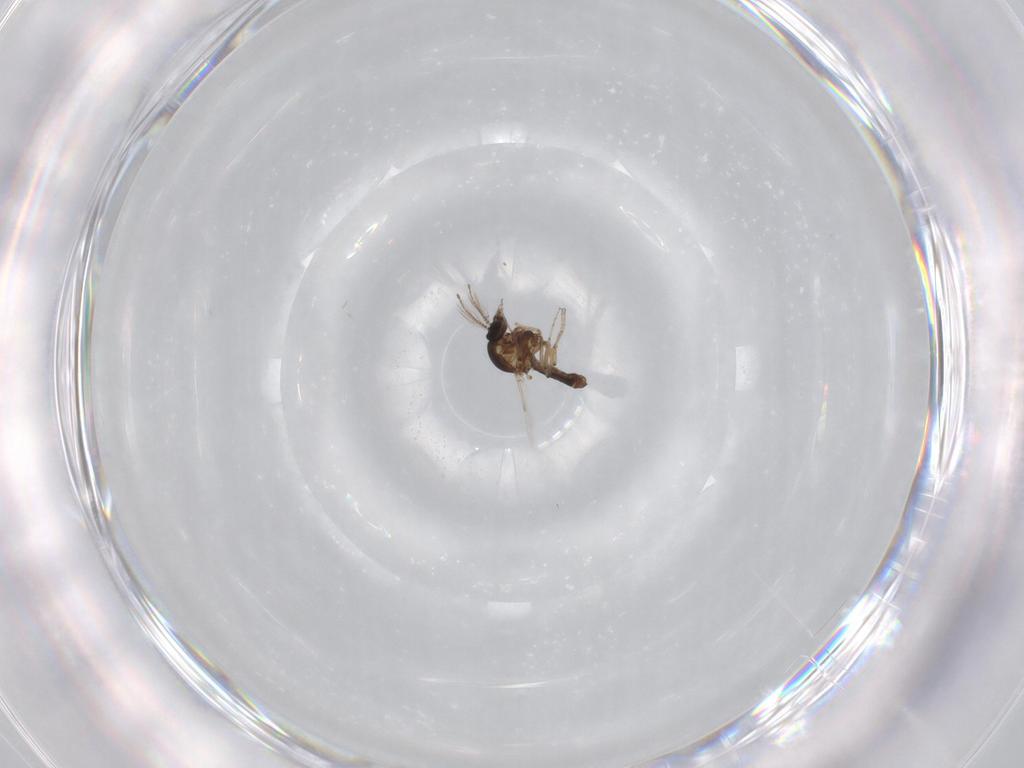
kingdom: Animalia
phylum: Arthropoda
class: Insecta
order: Diptera
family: Ceratopogonidae
